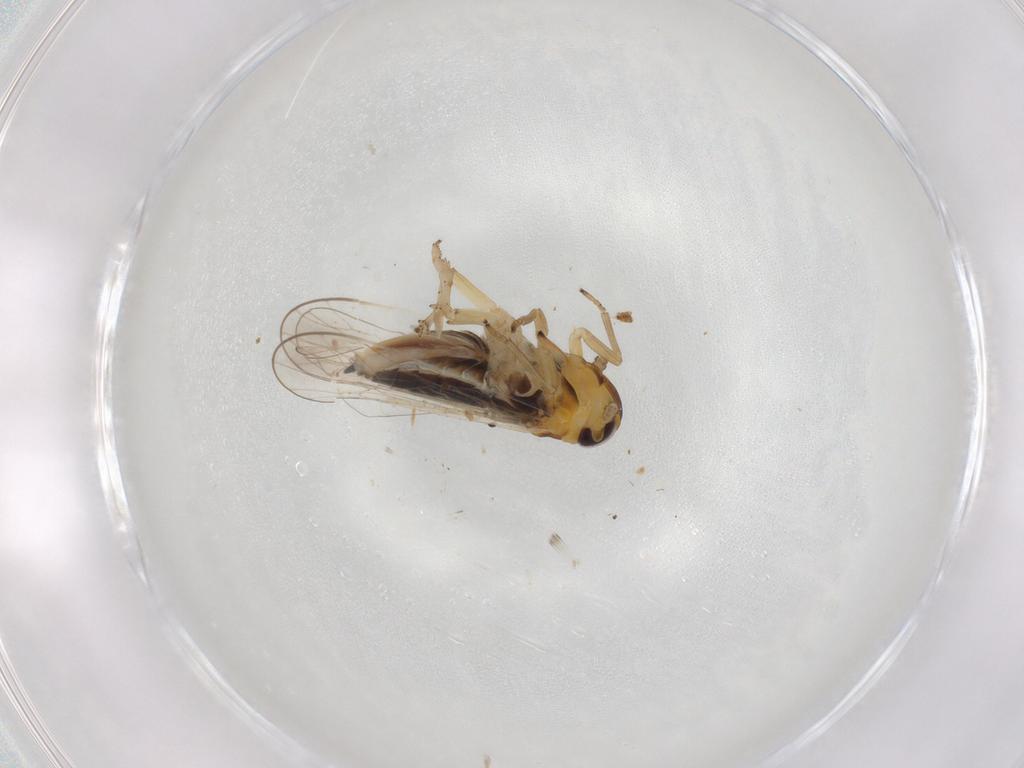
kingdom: Animalia
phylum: Arthropoda
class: Insecta
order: Hemiptera
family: Delphacidae
